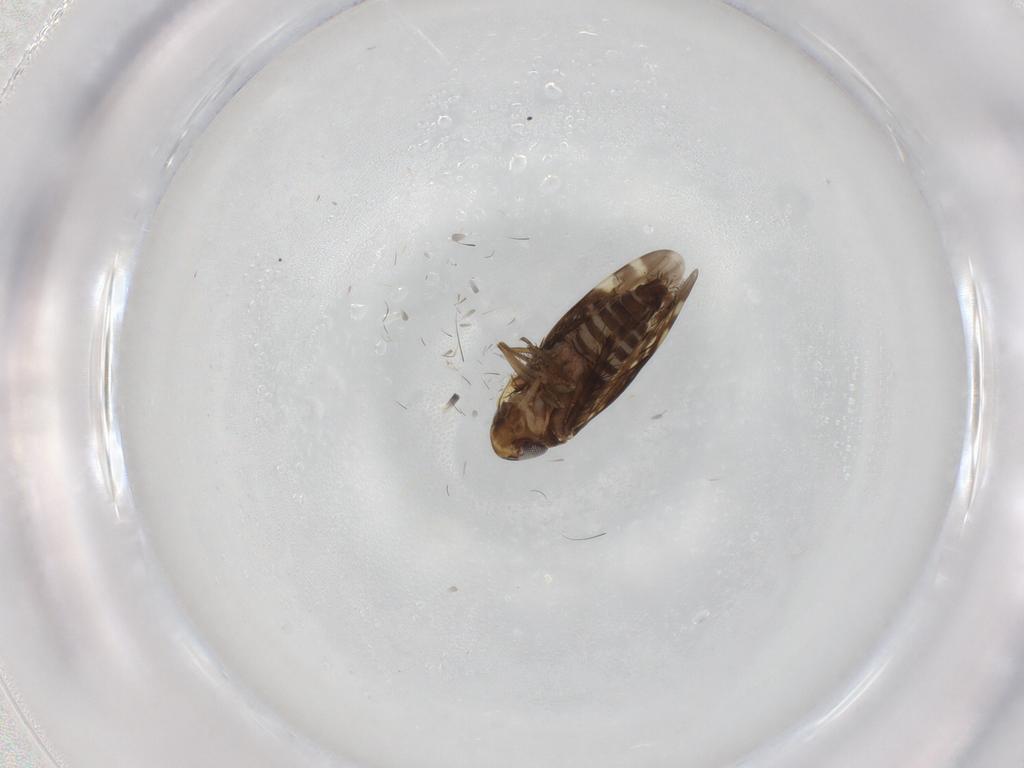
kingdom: Animalia
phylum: Arthropoda
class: Insecta
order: Hemiptera
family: Cicadellidae
